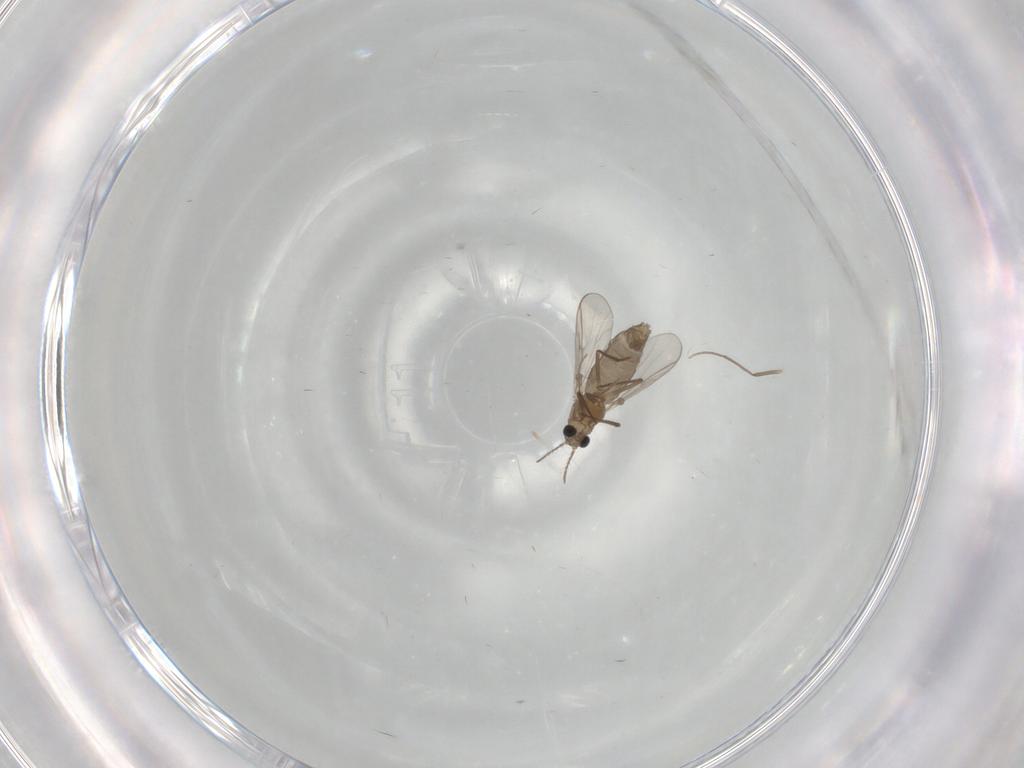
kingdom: Animalia
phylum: Arthropoda
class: Insecta
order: Diptera
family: Chironomidae
